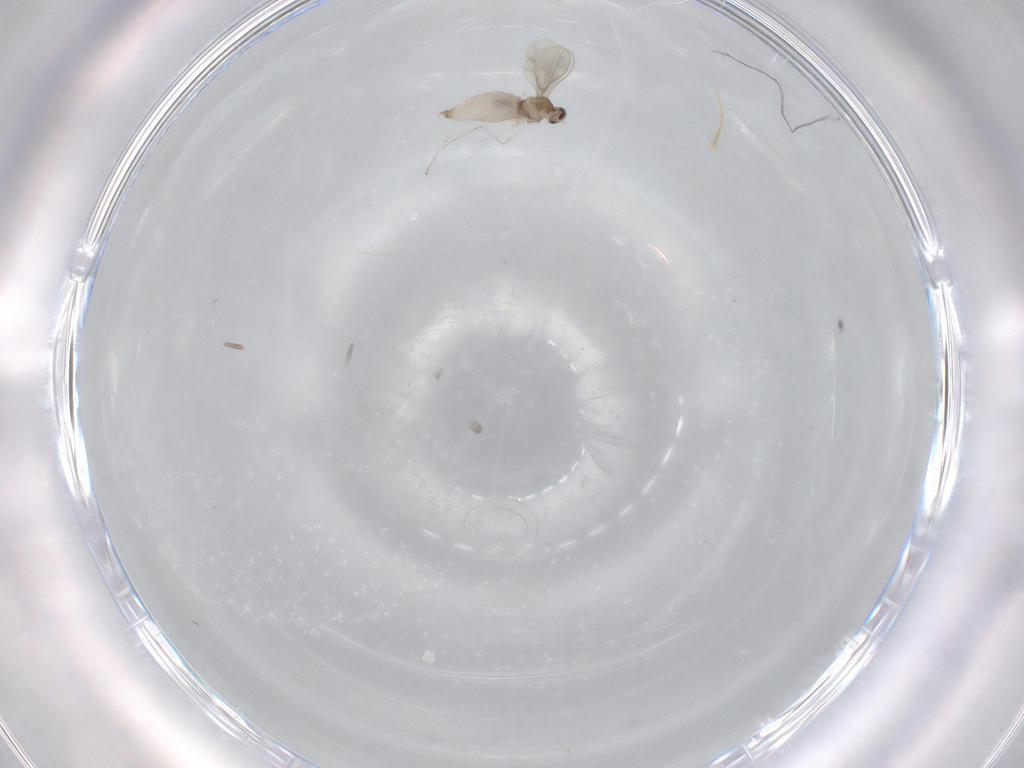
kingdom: Animalia
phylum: Arthropoda
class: Insecta
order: Diptera
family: Cecidomyiidae
